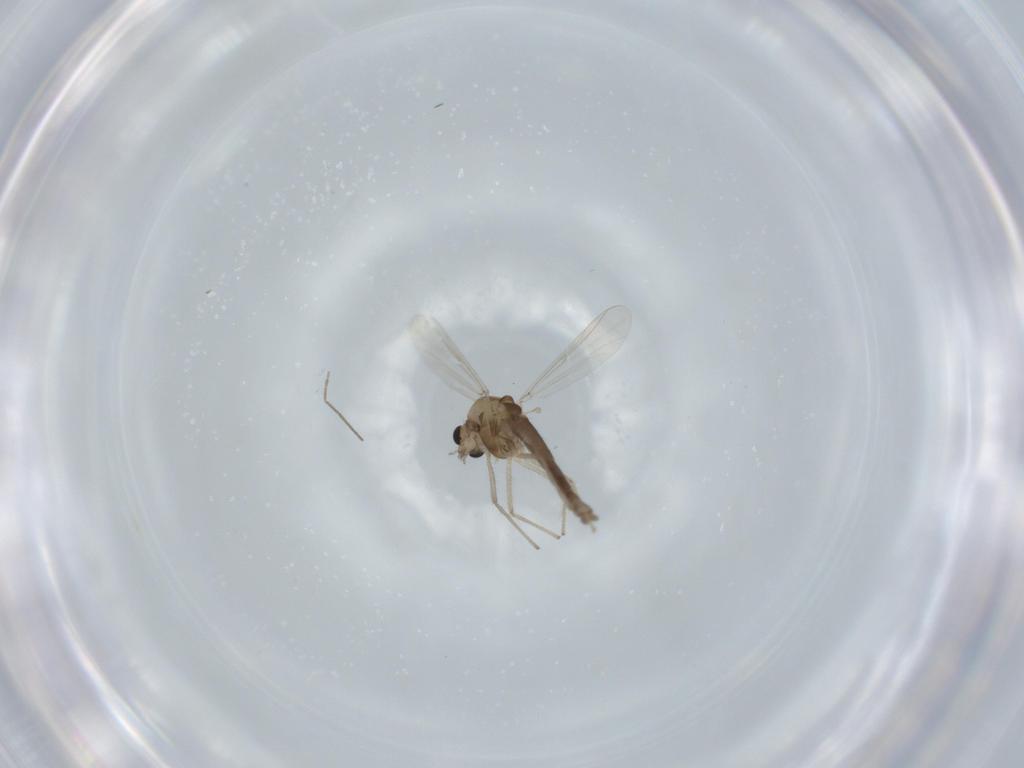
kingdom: Animalia
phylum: Arthropoda
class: Insecta
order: Diptera
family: Chironomidae
